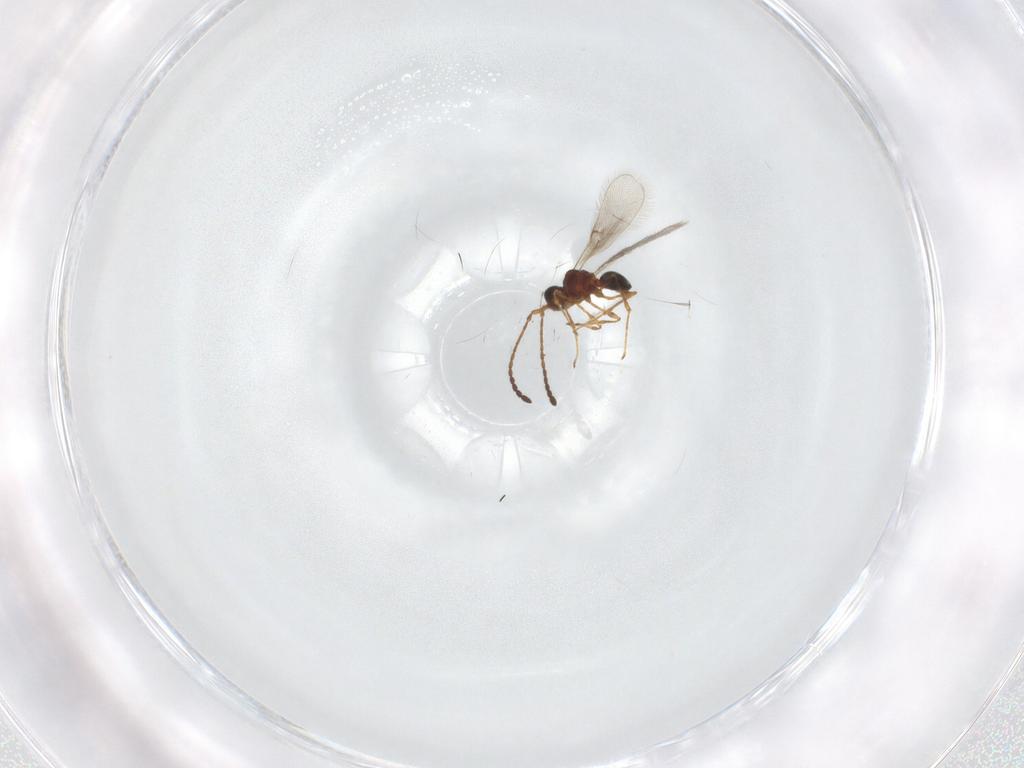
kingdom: Animalia
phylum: Arthropoda
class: Insecta
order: Hymenoptera
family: Diapriidae
